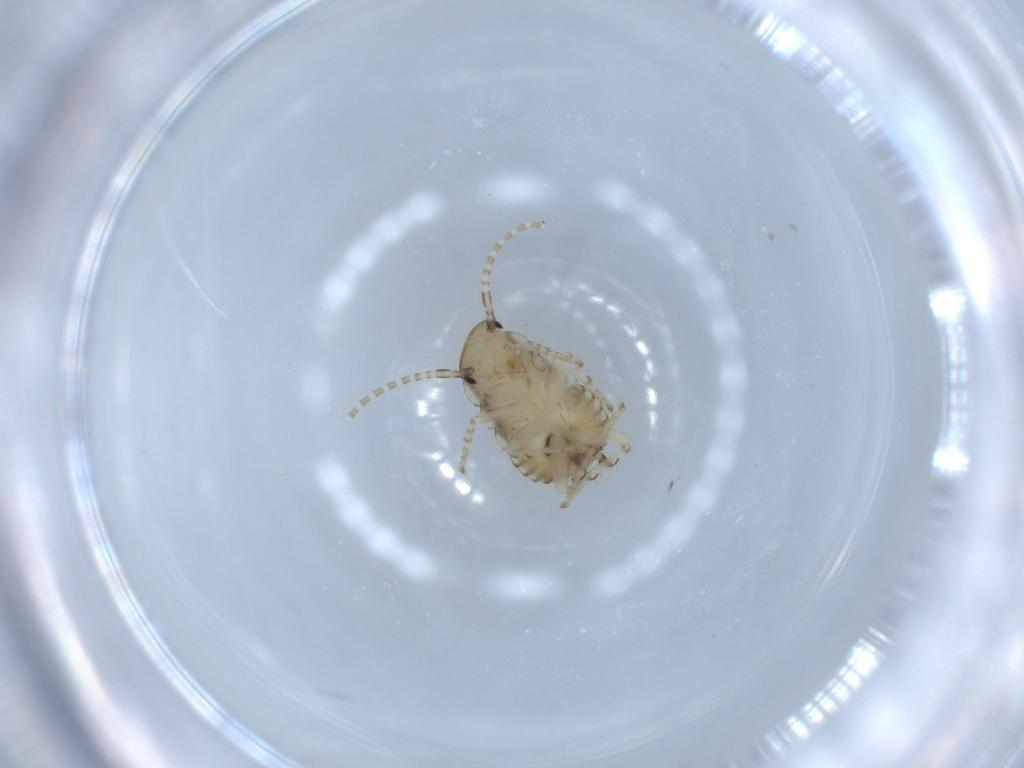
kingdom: Animalia
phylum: Arthropoda
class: Insecta
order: Blattodea
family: Ectobiidae
